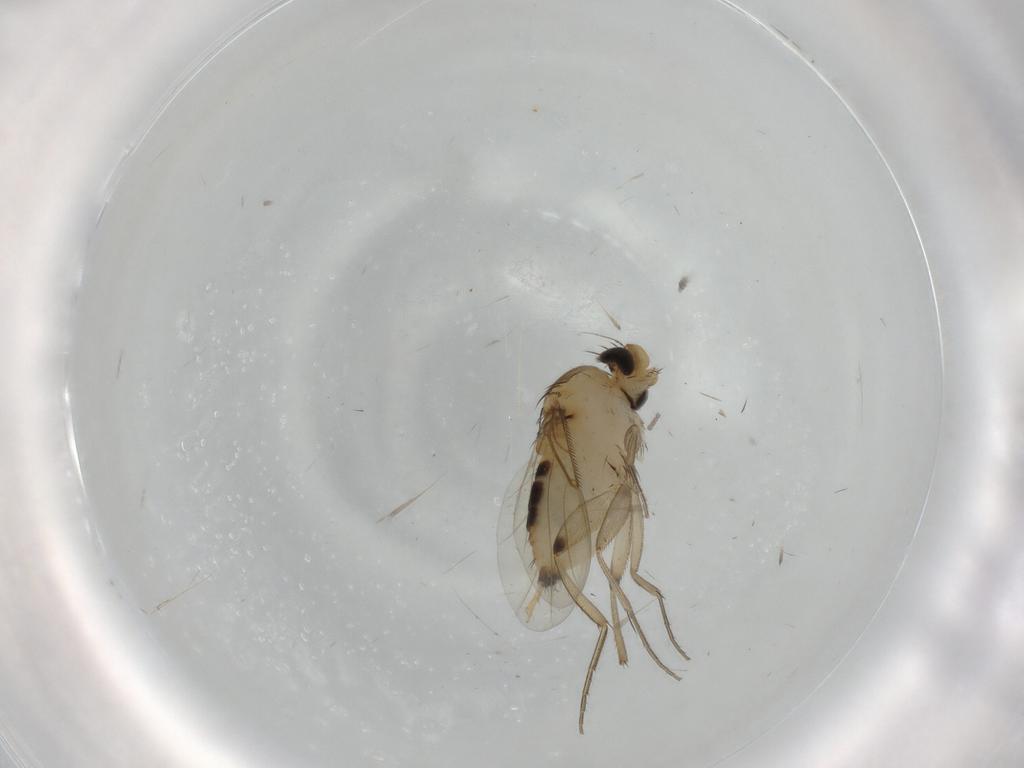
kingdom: Animalia
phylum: Arthropoda
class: Insecta
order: Diptera
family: Phoridae
